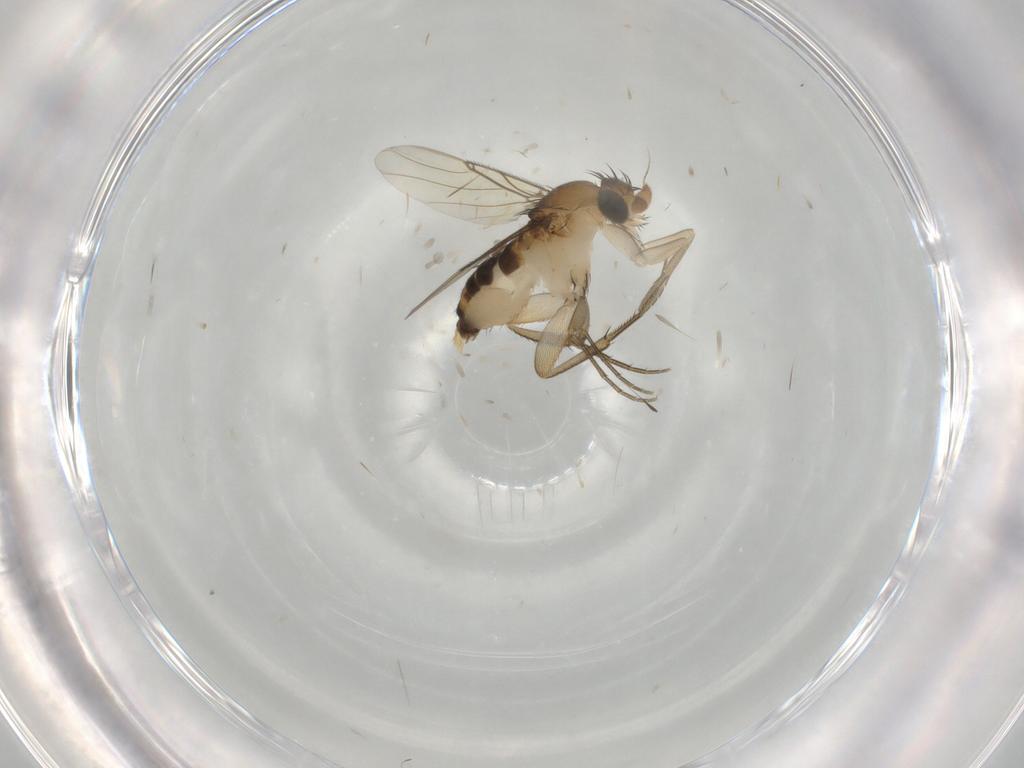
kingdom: Animalia
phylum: Arthropoda
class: Insecta
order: Diptera
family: Phoridae
